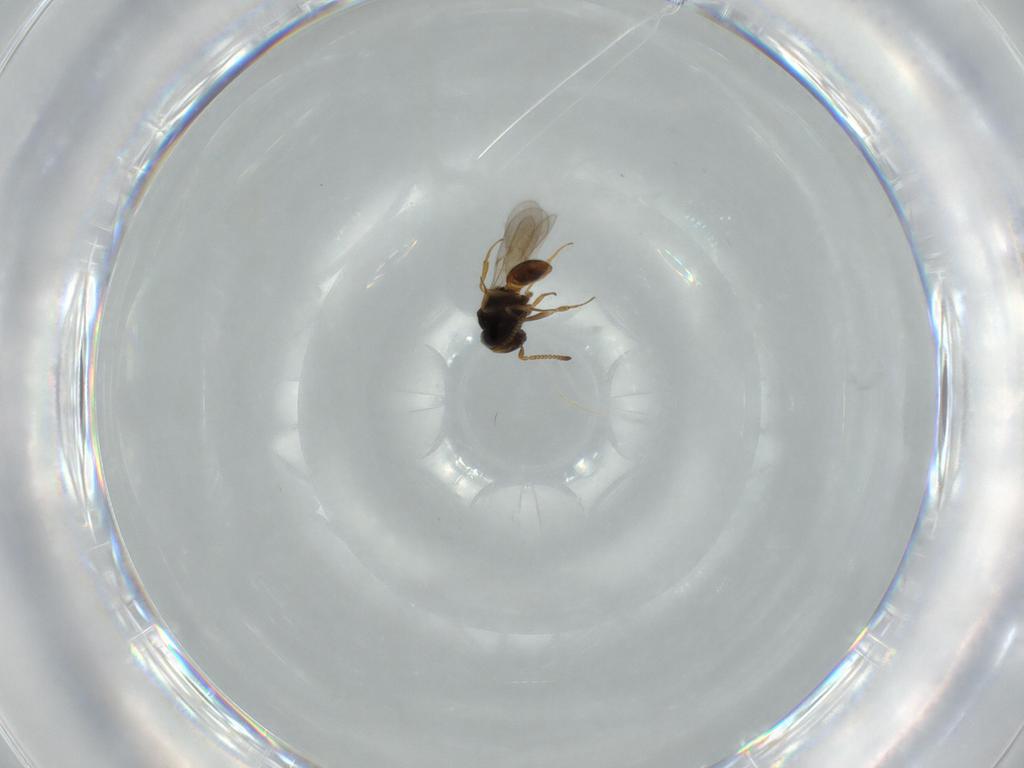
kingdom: Animalia
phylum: Arthropoda
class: Insecta
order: Hymenoptera
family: Scelionidae
